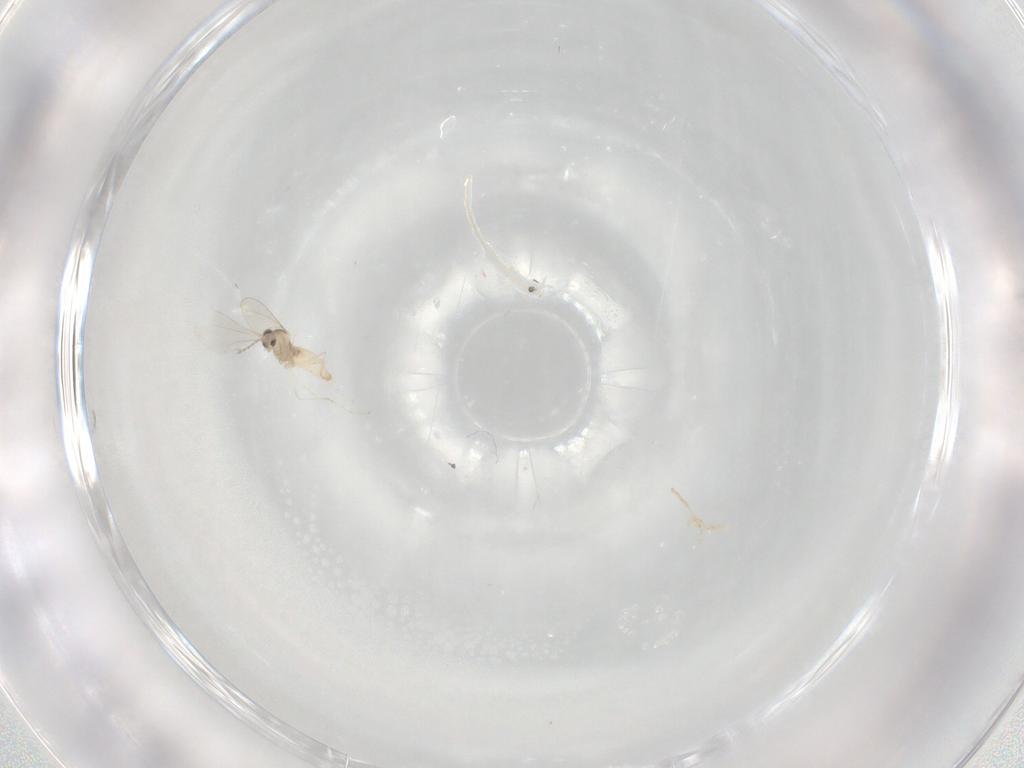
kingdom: Animalia
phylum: Arthropoda
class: Insecta
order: Diptera
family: Cecidomyiidae
